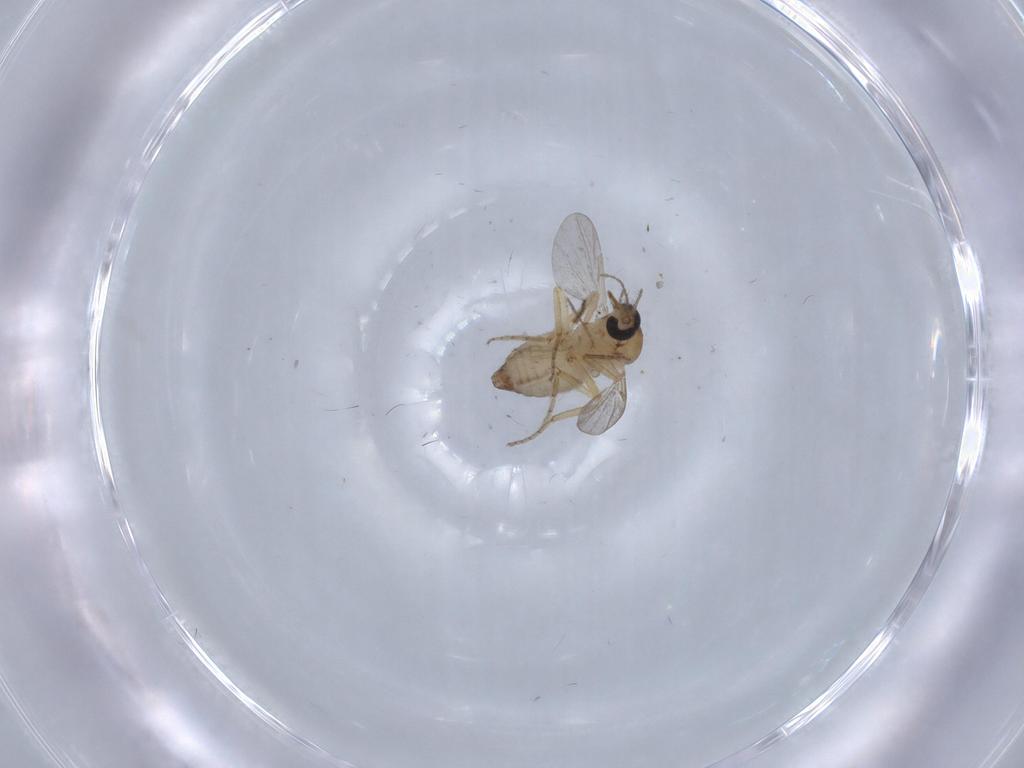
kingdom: Animalia
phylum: Arthropoda
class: Insecta
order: Diptera
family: Ceratopogonidae
